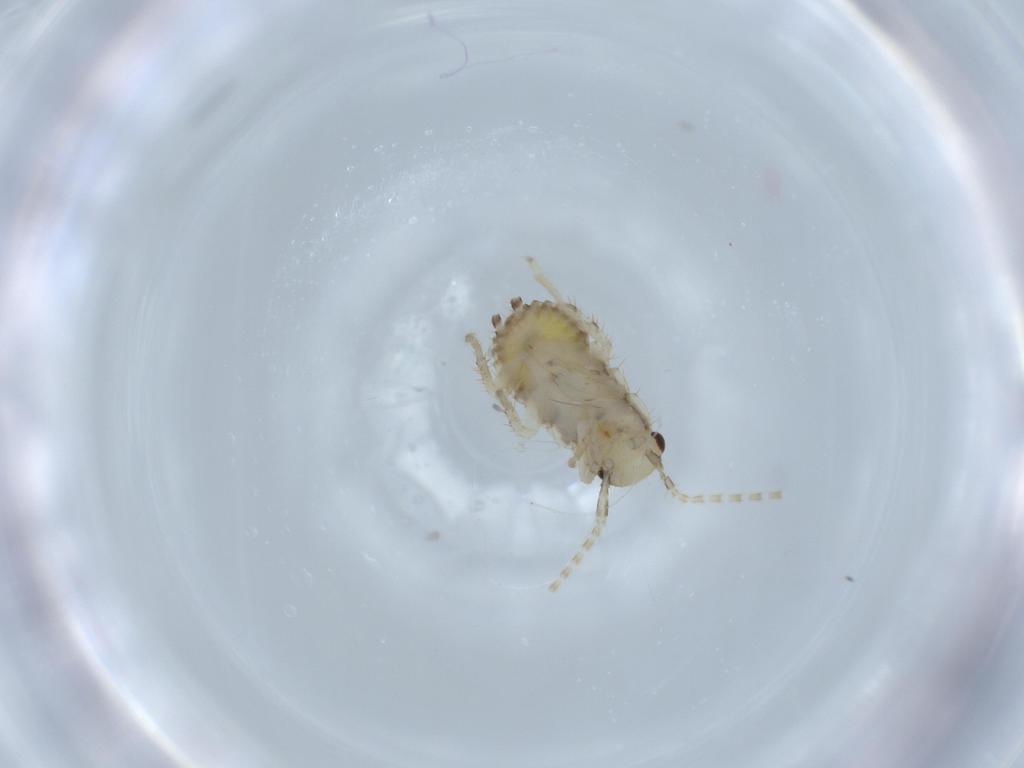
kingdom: Animalia
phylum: Arthropoda
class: Insecta
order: Blattodea
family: Ectobiidae
